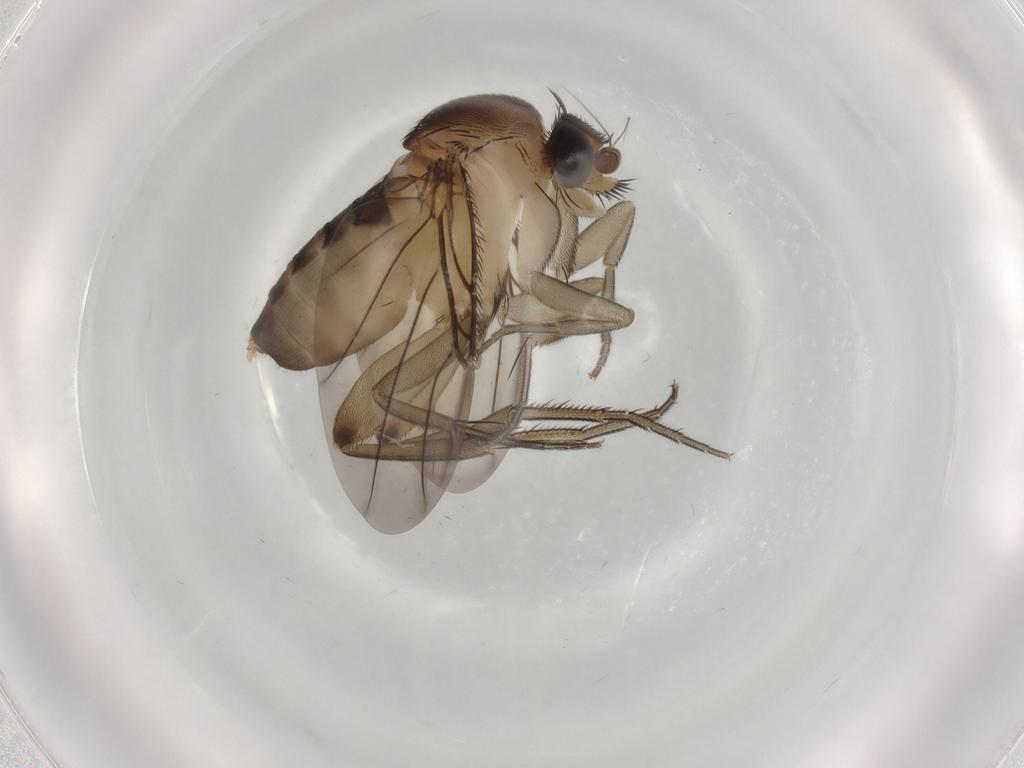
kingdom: Animalia
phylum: Arthropoda
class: Insecta
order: Diptera
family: Phoridae
